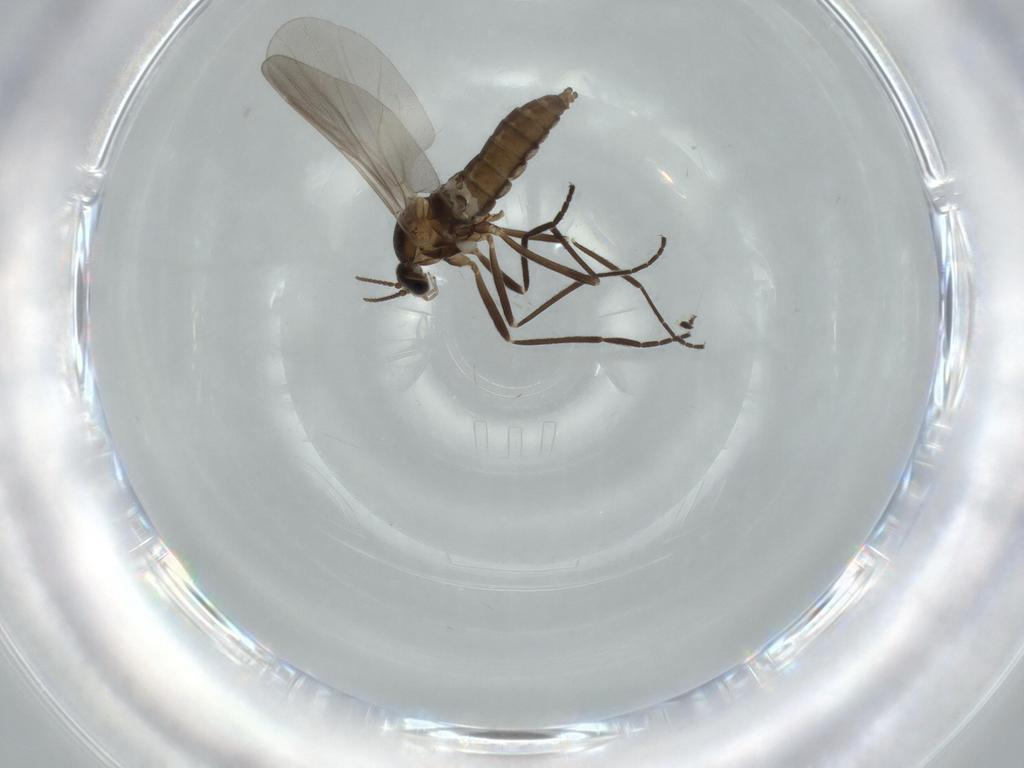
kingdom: Animalia
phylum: Arthropoda
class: Insecta
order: Diptera
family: Cecidomyiidae
